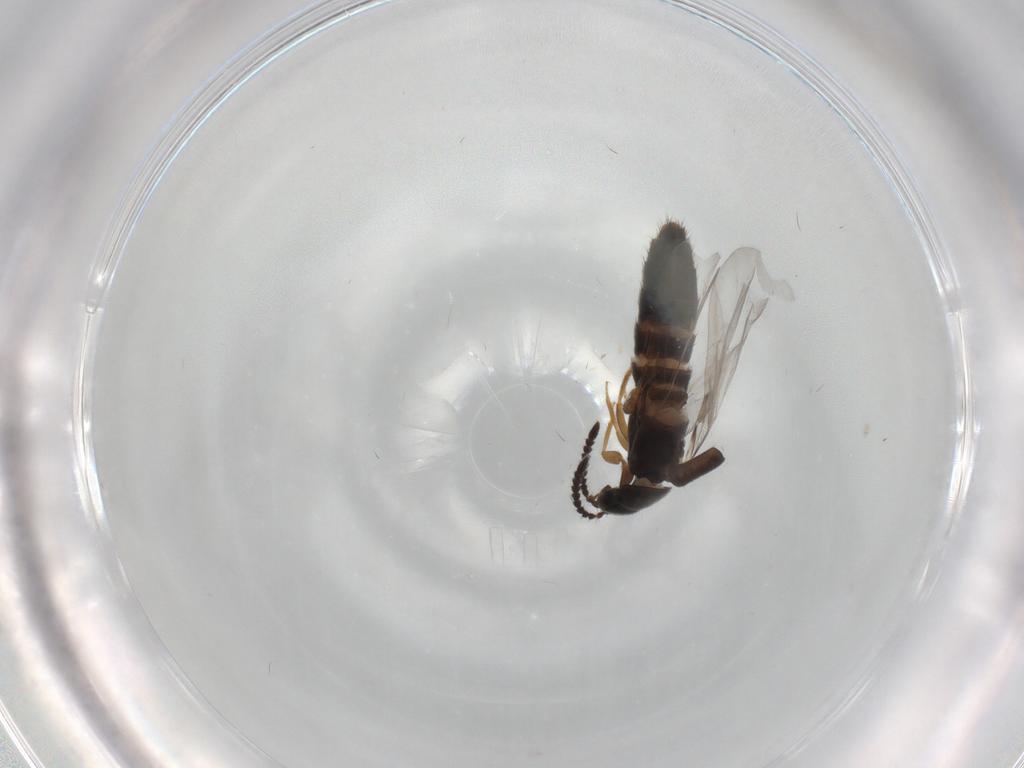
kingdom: Animalia
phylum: Arthropoda
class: Insecta
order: Coleoptera
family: Staphylinidae
